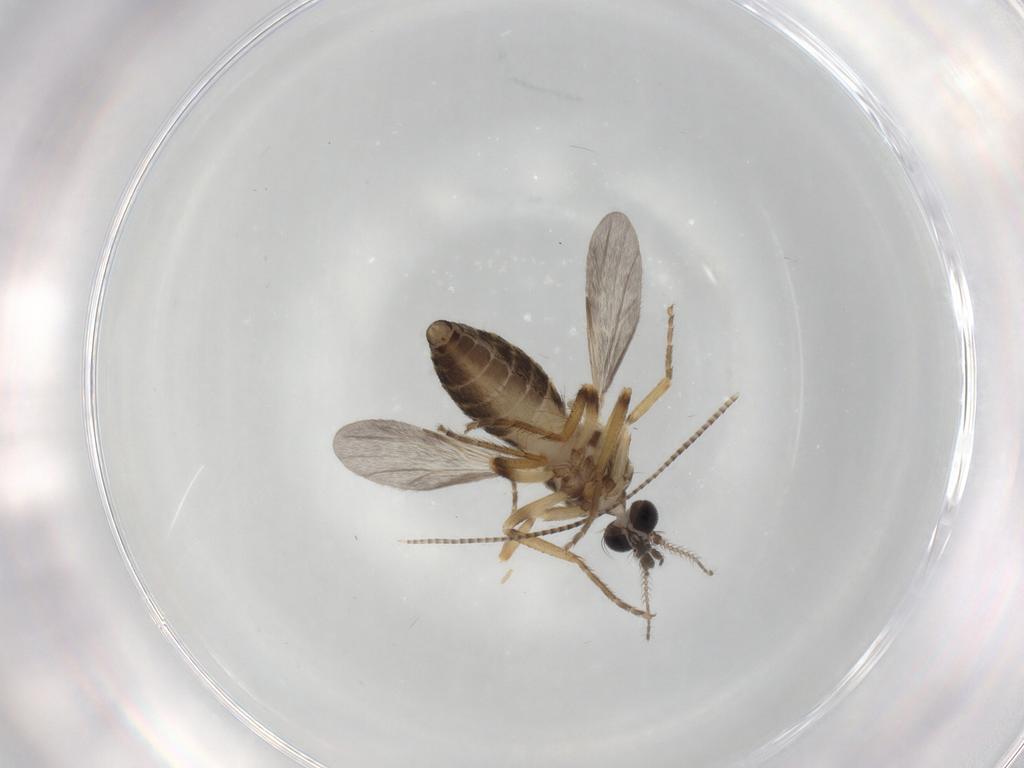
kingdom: Animalia
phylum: Arthropoda
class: Insecta
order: Diptera
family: Ceratopogonidae
